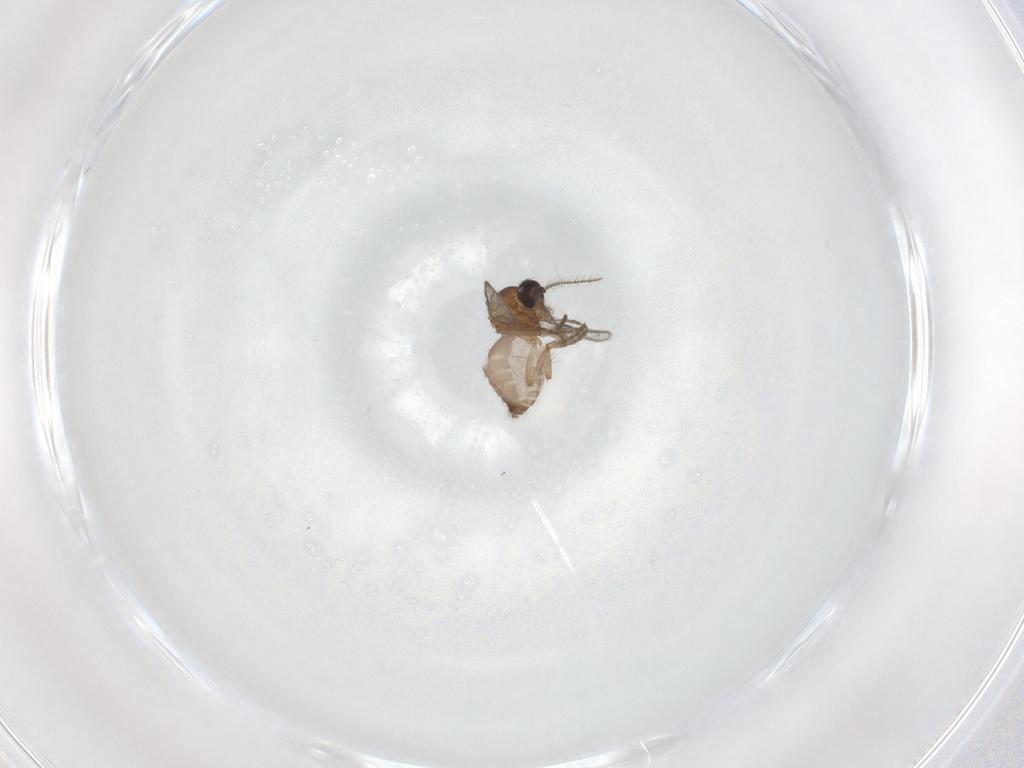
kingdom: Animalia
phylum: Arthropoda
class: Insecta
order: Diptera
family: Ceratopogonidae
